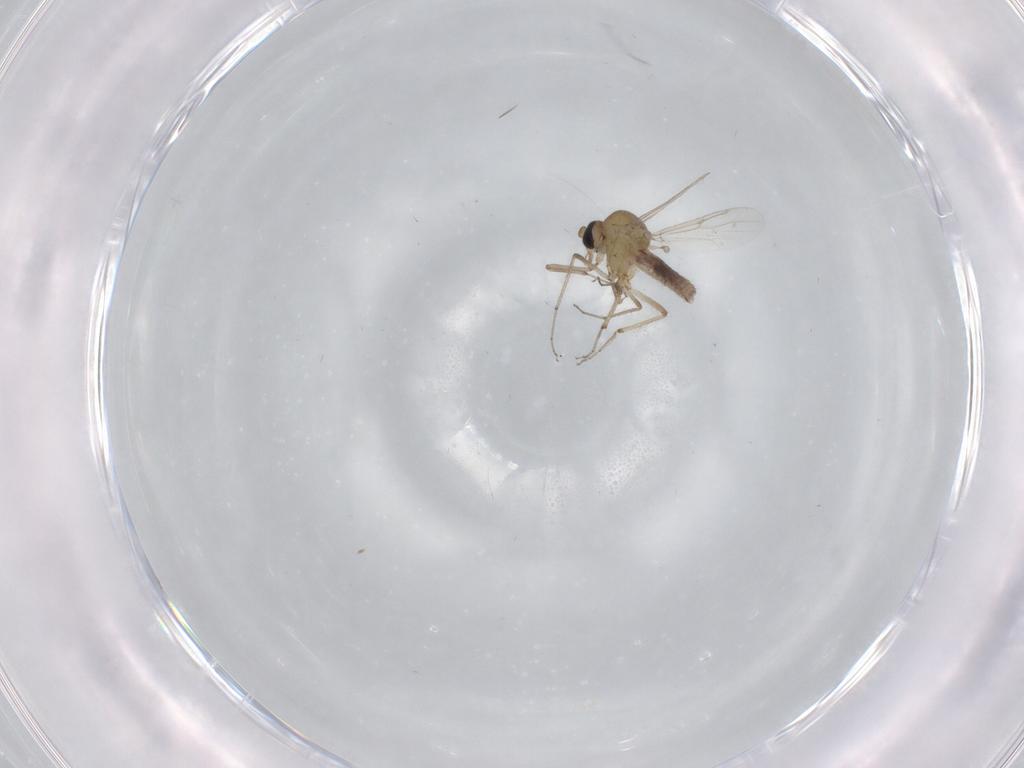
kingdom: Animalia
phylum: Arthropoda
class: Insecta
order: Diptera
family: Ceratopogonidae
